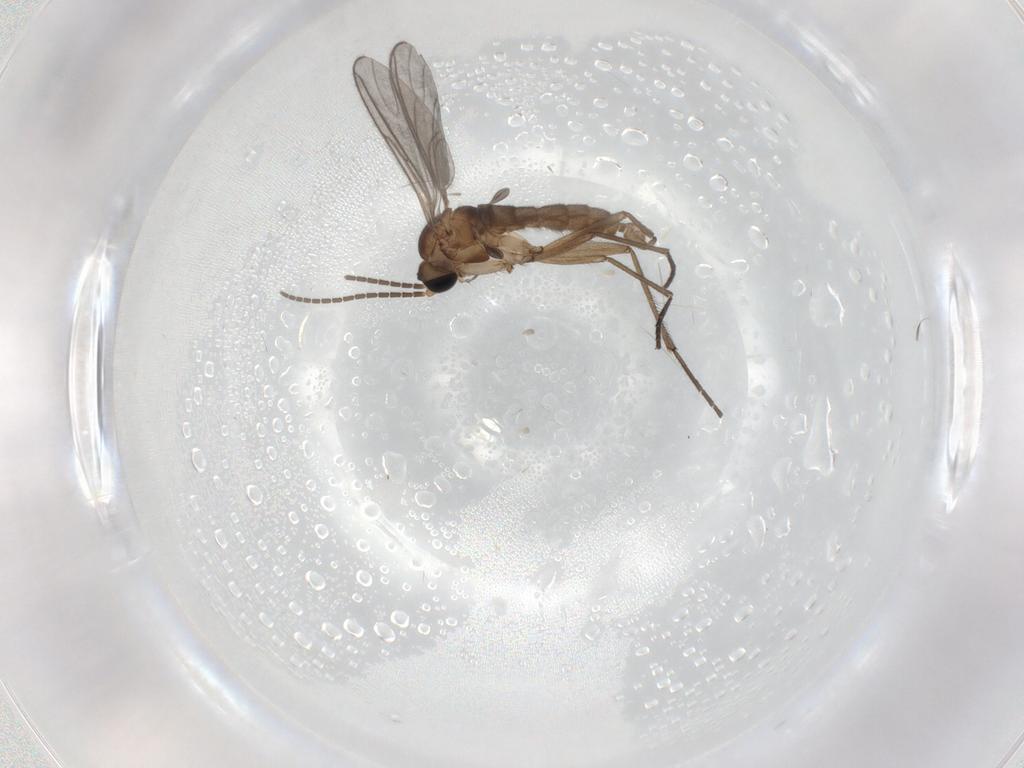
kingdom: Animalia
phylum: Arthropoda
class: Insecta
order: Diptera
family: Sciaridae
